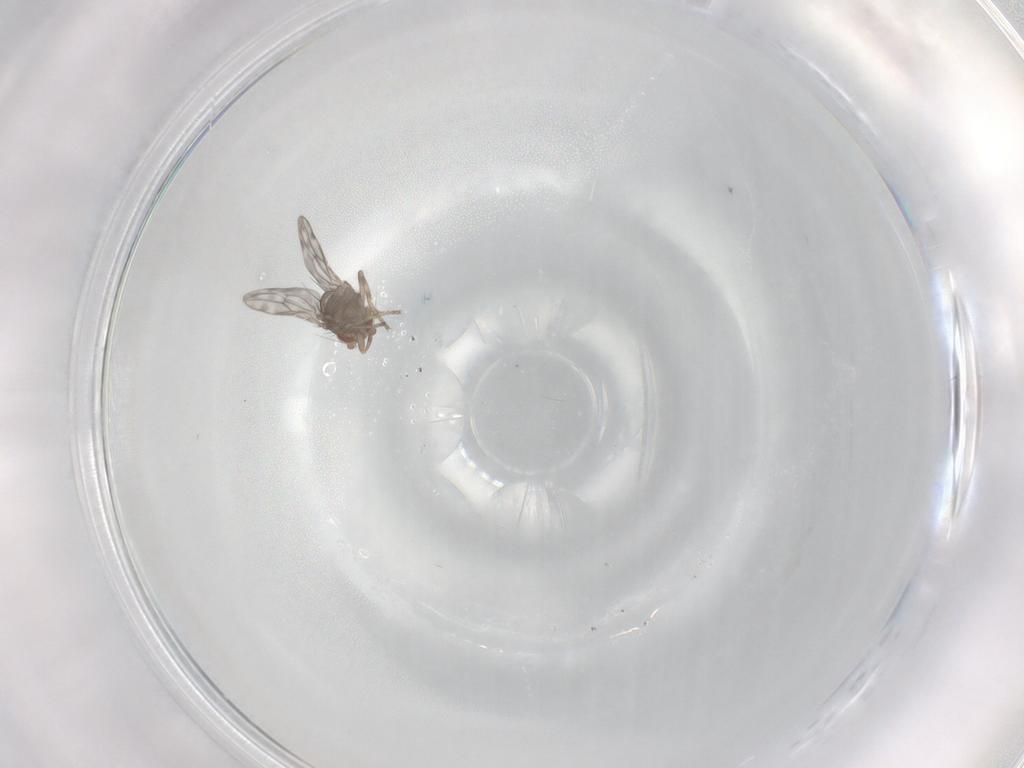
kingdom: Animalia
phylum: Arthropoda
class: Insecta
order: Diptera
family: Sphaeroceridae
